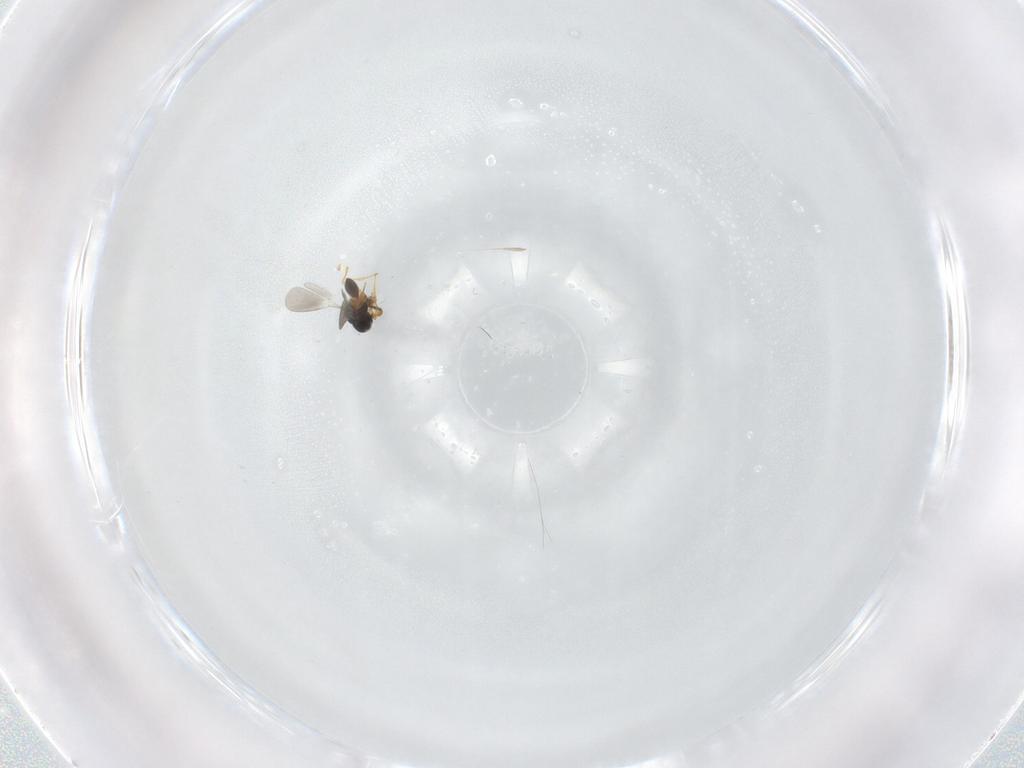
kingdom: Animalia
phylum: Arthropoda
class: Insecta
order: Hymenoptera
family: Platygastridae
